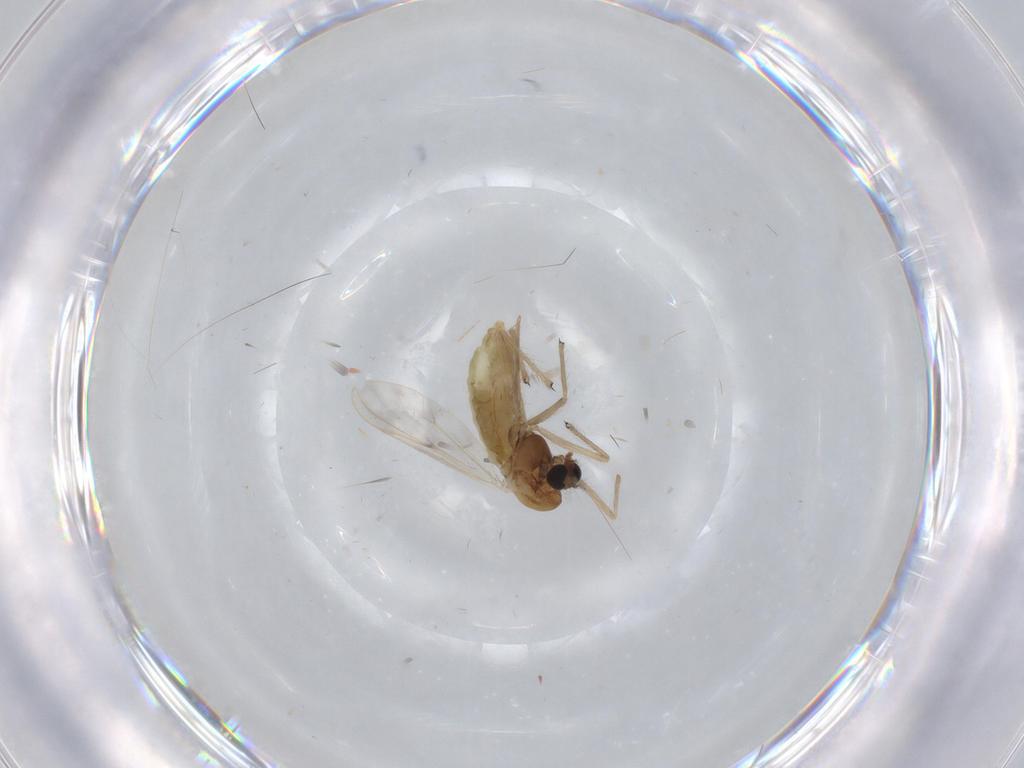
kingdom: Animalia
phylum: Arthropoda
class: Insecta
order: Diptera
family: Chironomidae
